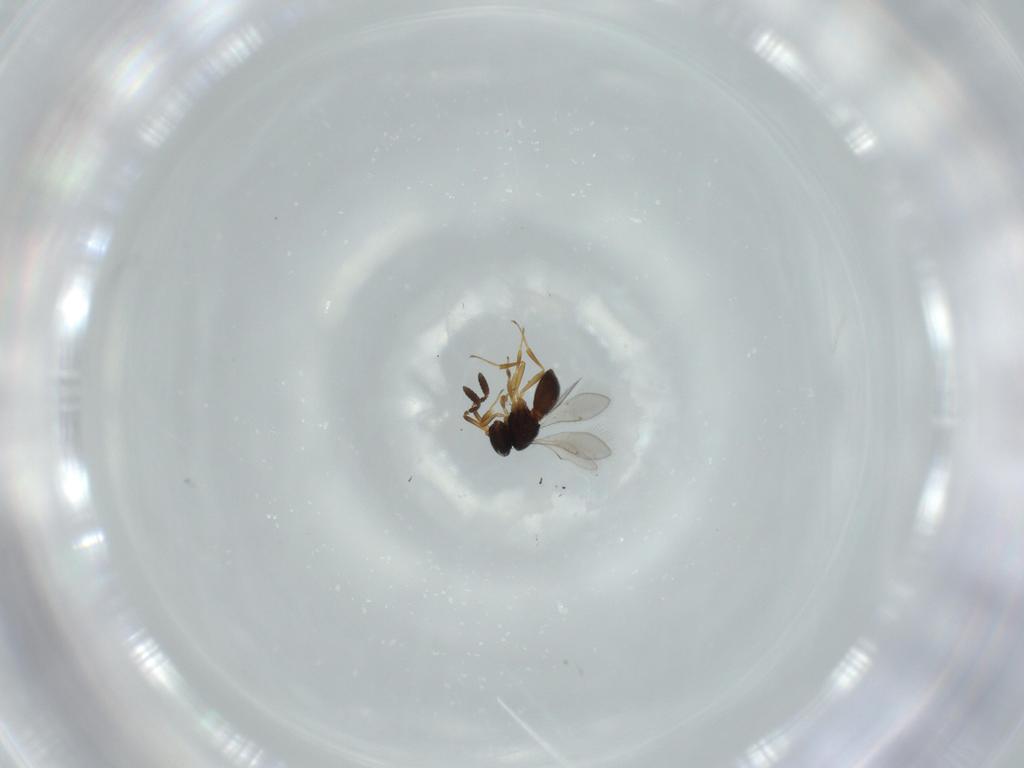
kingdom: Animalia
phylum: Arthropoda
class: Insecta
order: Hymenoptera
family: Scelionidae
